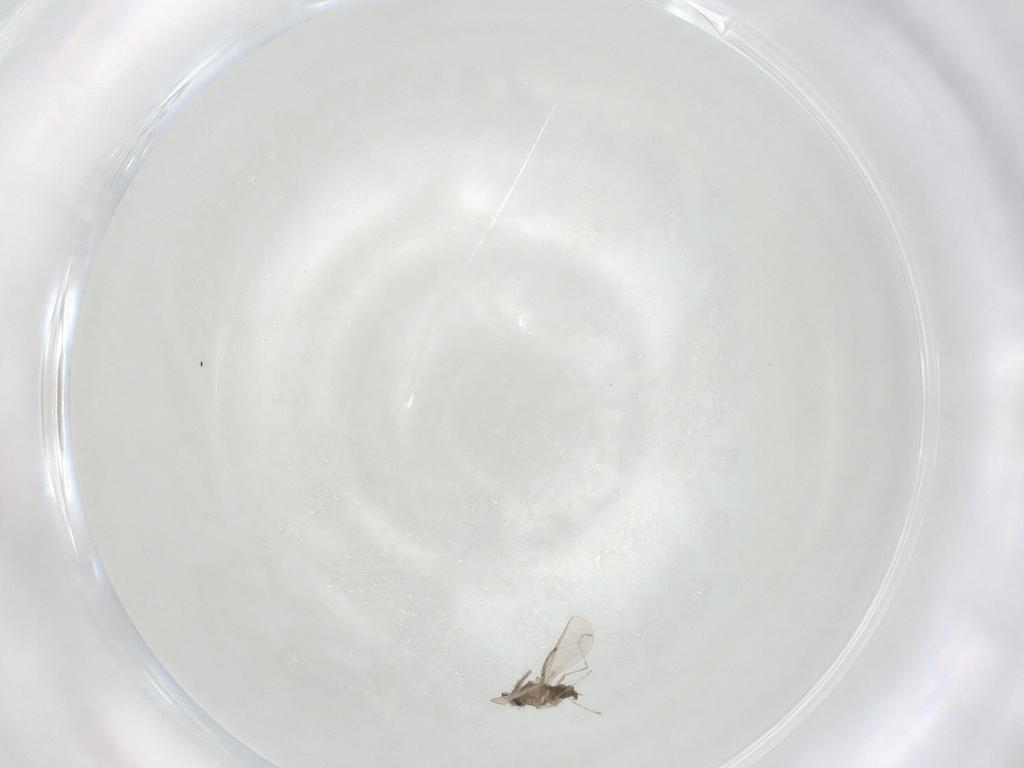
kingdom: Animalia
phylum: Arthropoda
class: Insecta
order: Diptera
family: Cecidomyiidae
